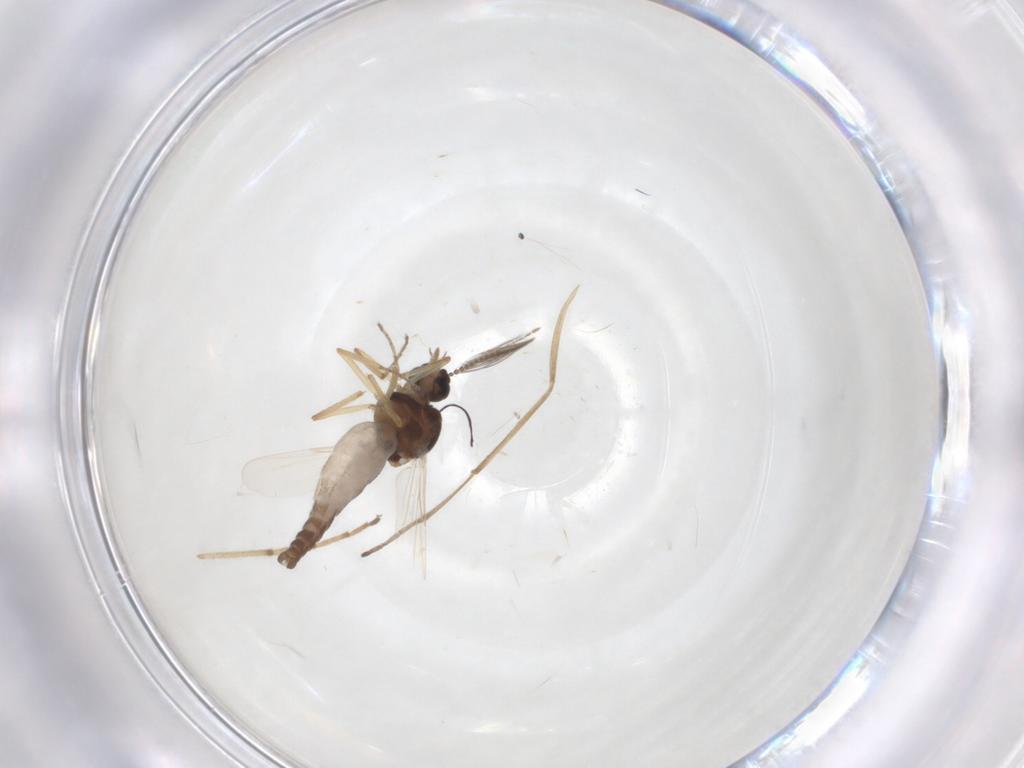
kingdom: Animalia
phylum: Arthropoda
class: Insecta
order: Diptera
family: Ceratopogonidae
